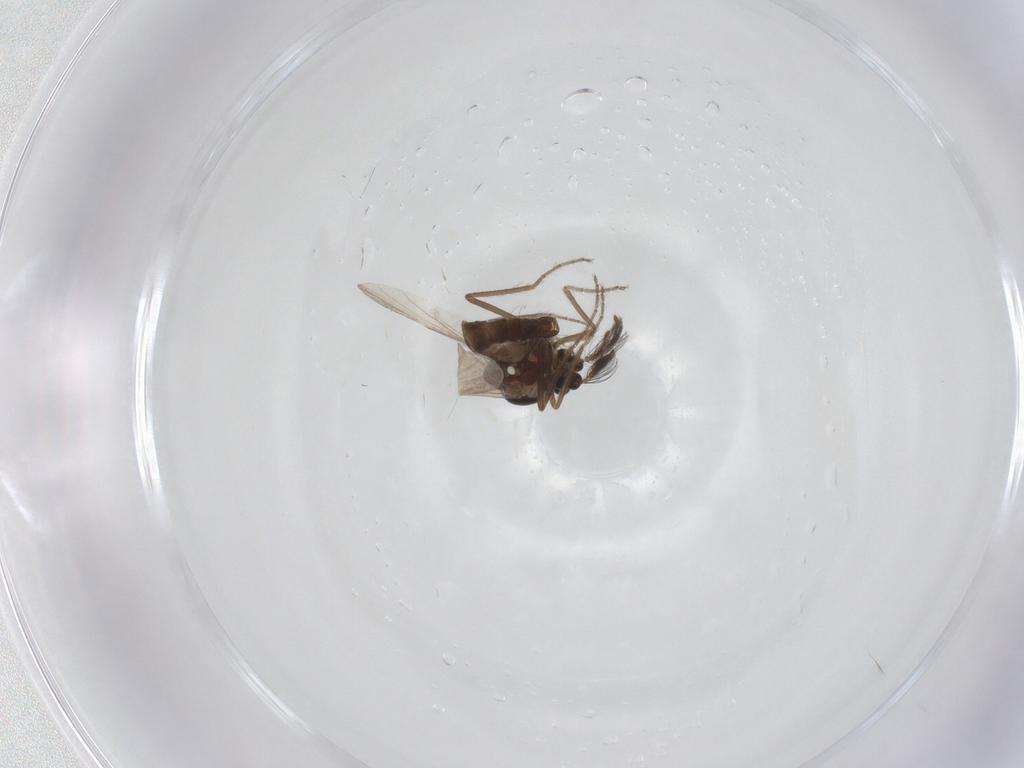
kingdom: Animalia
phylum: Arthropoda
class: Insecta
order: Diptera
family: Ceratopogonidae
